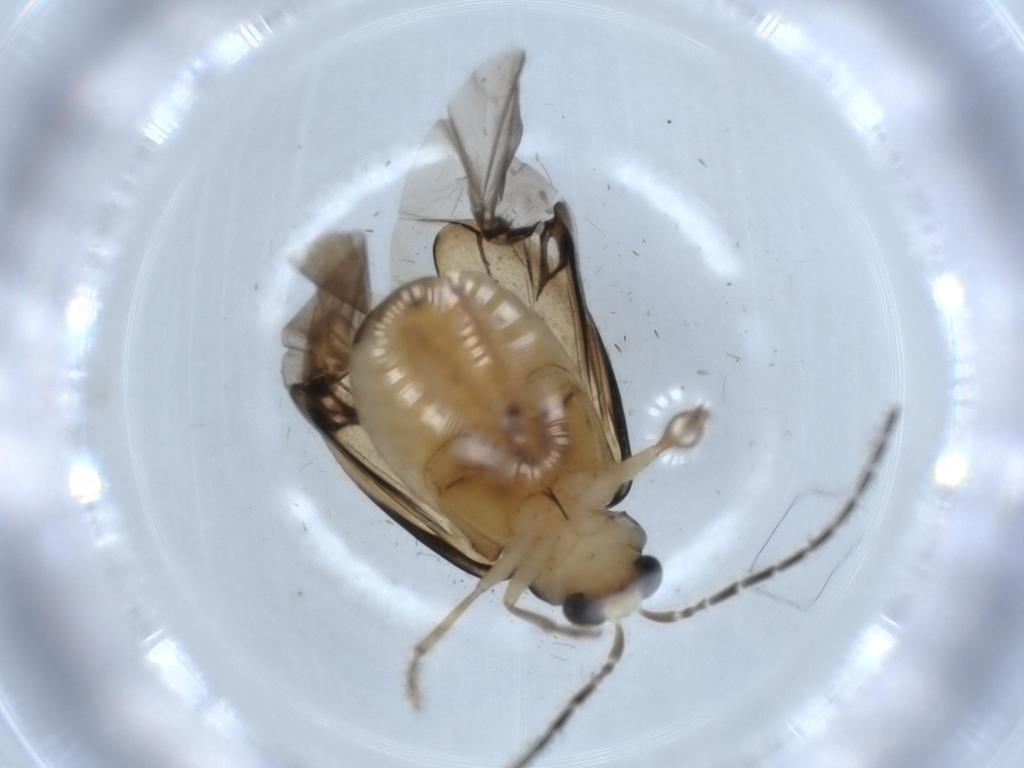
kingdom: Animalia
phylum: Arthropoda
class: Insecta
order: Coleoptera
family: Chrysomelidae
